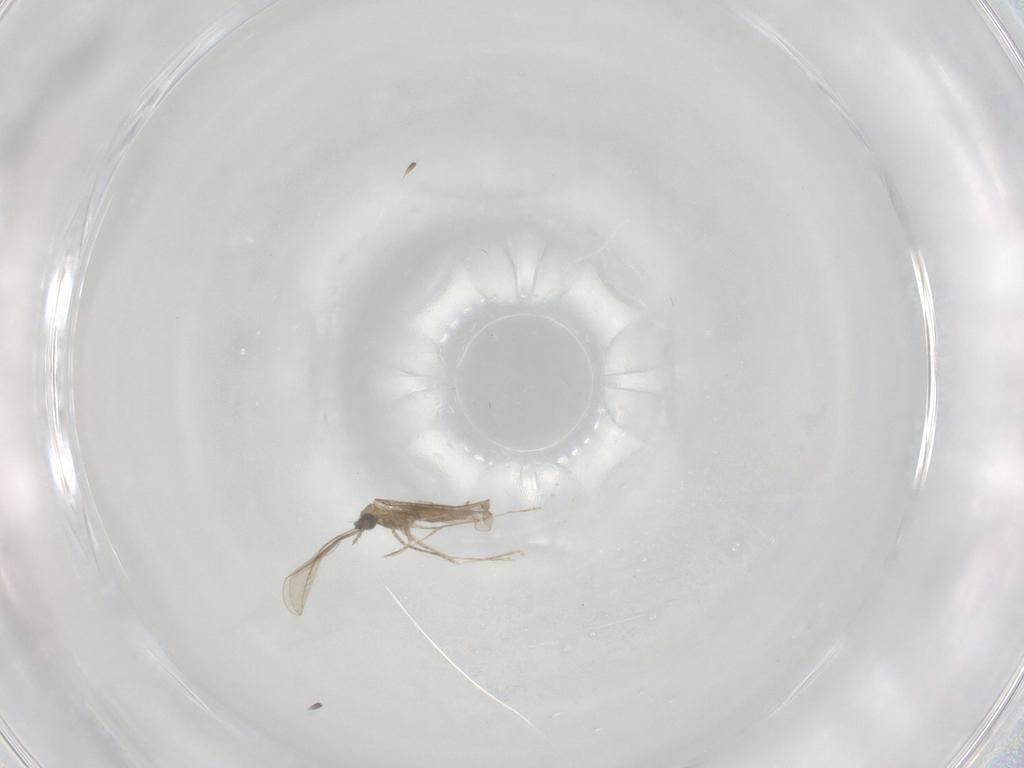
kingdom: Animalia
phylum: Arthropoda
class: Insecta
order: Diptera
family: Cecidomyiidae
